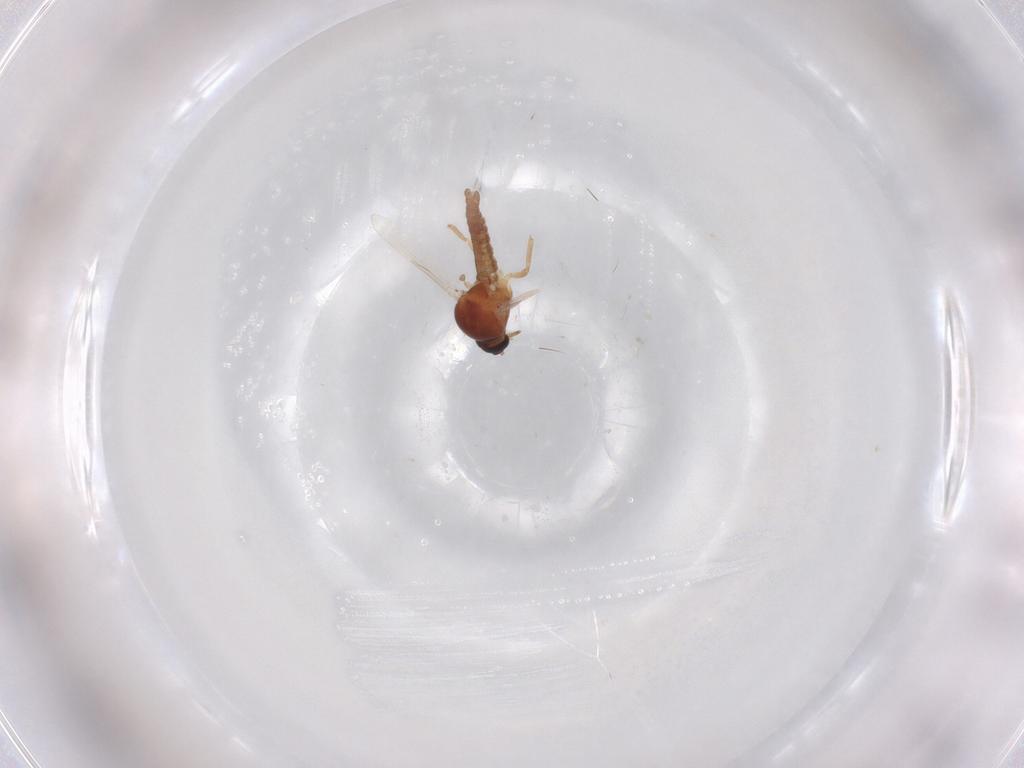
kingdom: Animalia
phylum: Arthropoda
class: Insecta
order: Diptera
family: Ceratopogonidae
